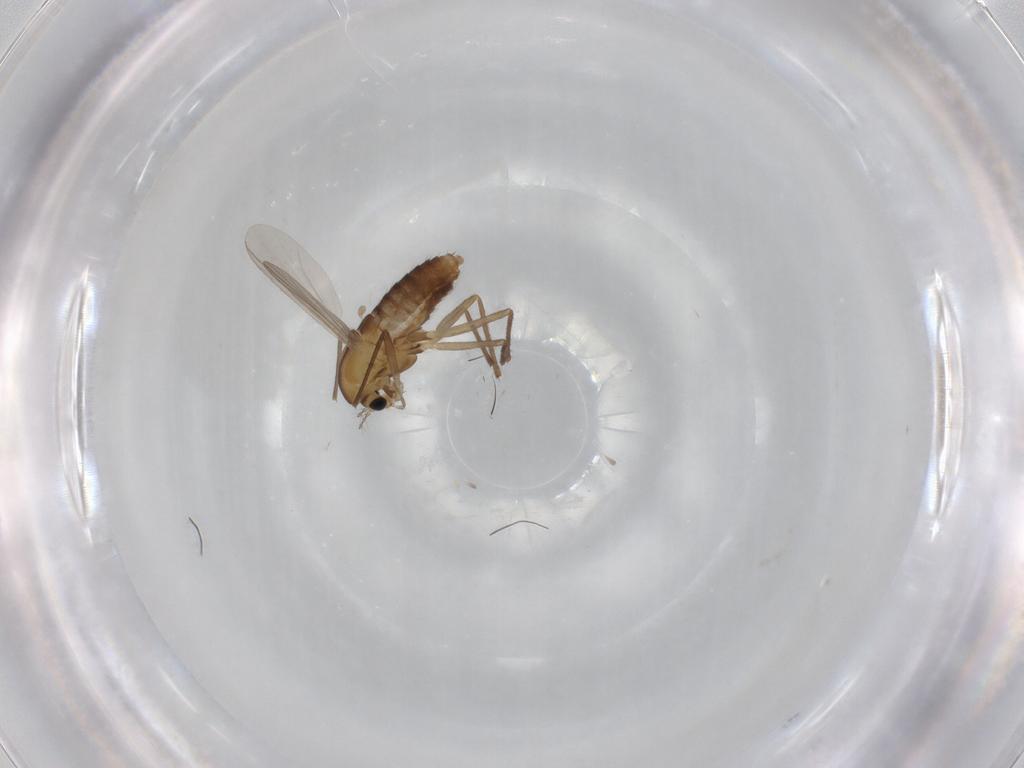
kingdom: Animalia
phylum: Arthropoda
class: Insecta
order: Diptera
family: Chironomidae
